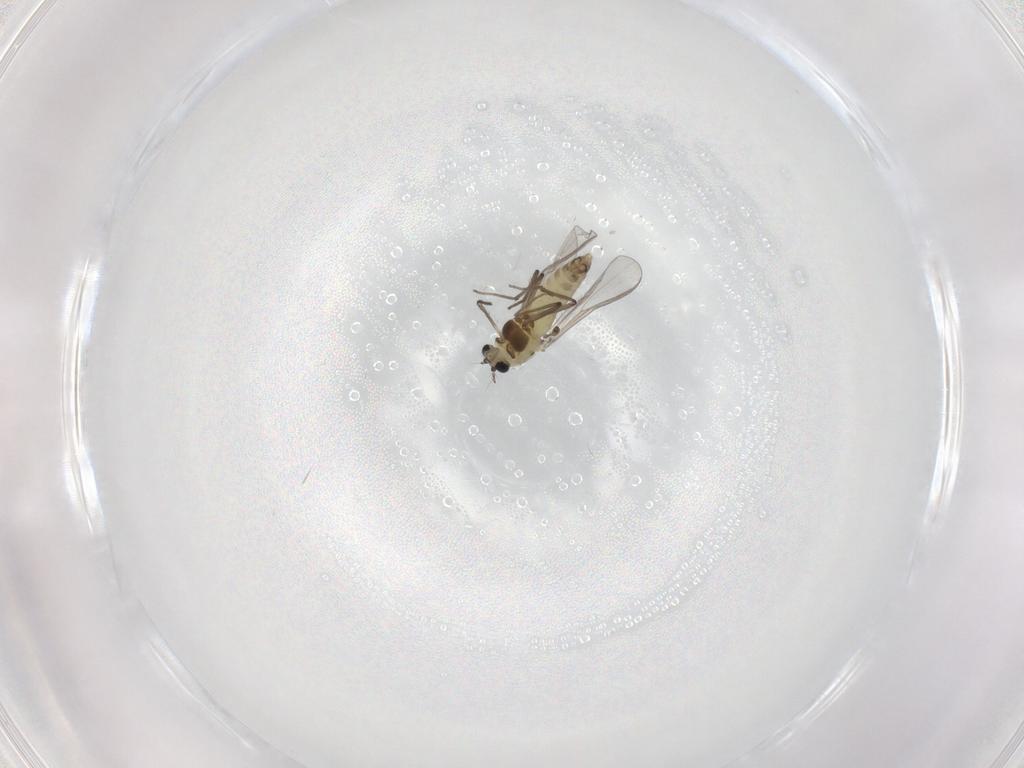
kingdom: Animalia
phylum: Arthropoda
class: Insecta
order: Diptera
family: Chironomidae
